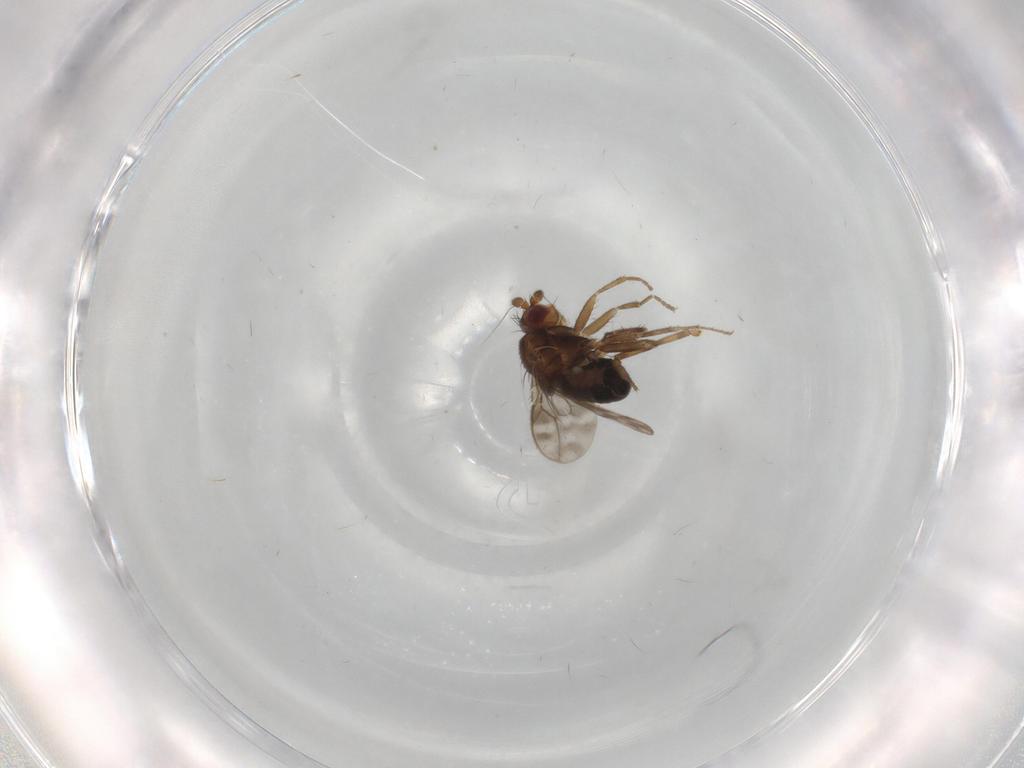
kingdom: Animalia
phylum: Arthropoda
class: Insecta
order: Diptera
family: Sphaeroceridae
